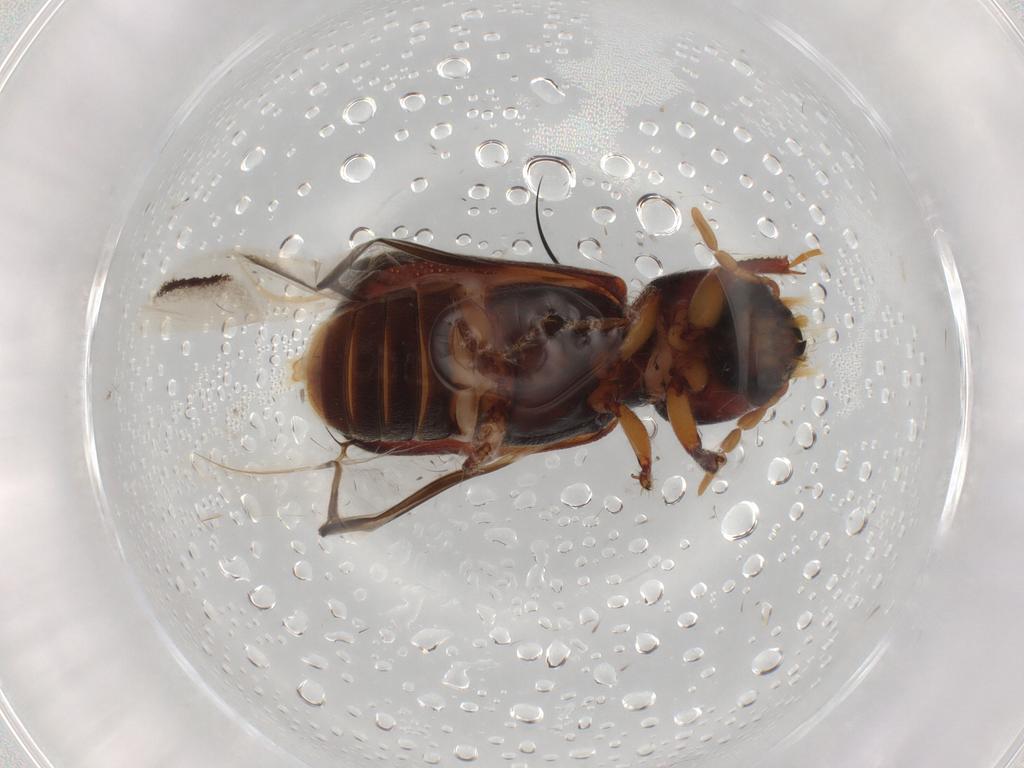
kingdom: Animalia
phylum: Arthropoda
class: Insecta
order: Coleoptera
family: Bostrichidae
